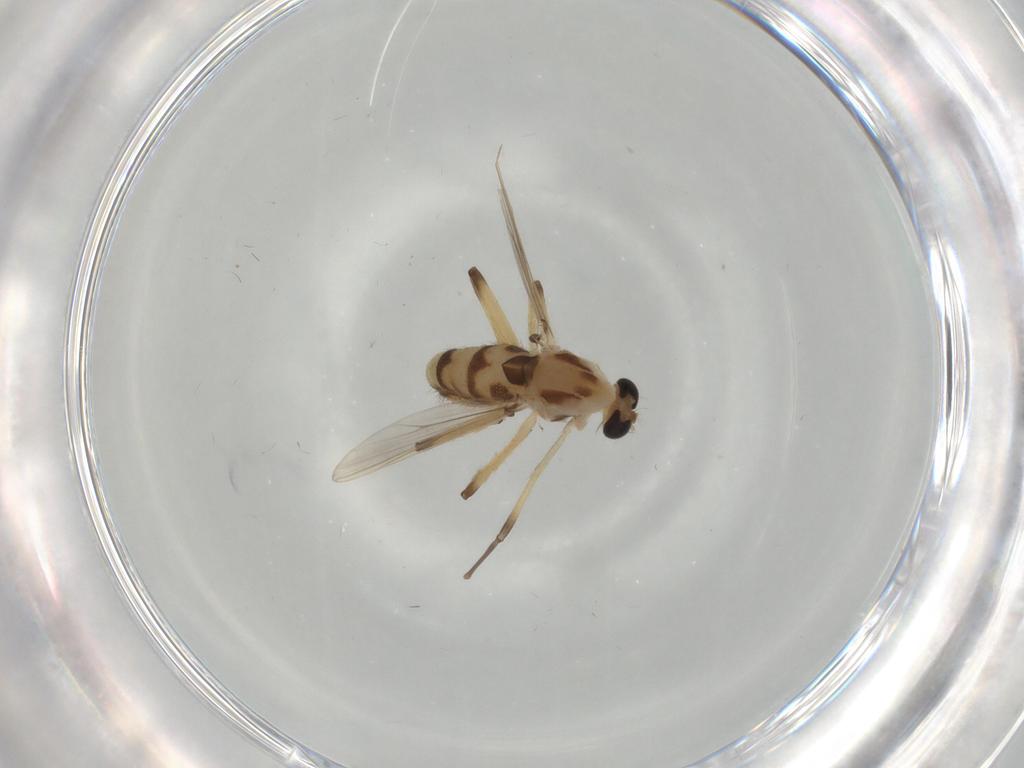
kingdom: Animalia
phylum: Arthropoda
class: Insecta
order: Diptera
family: Chironomidae
